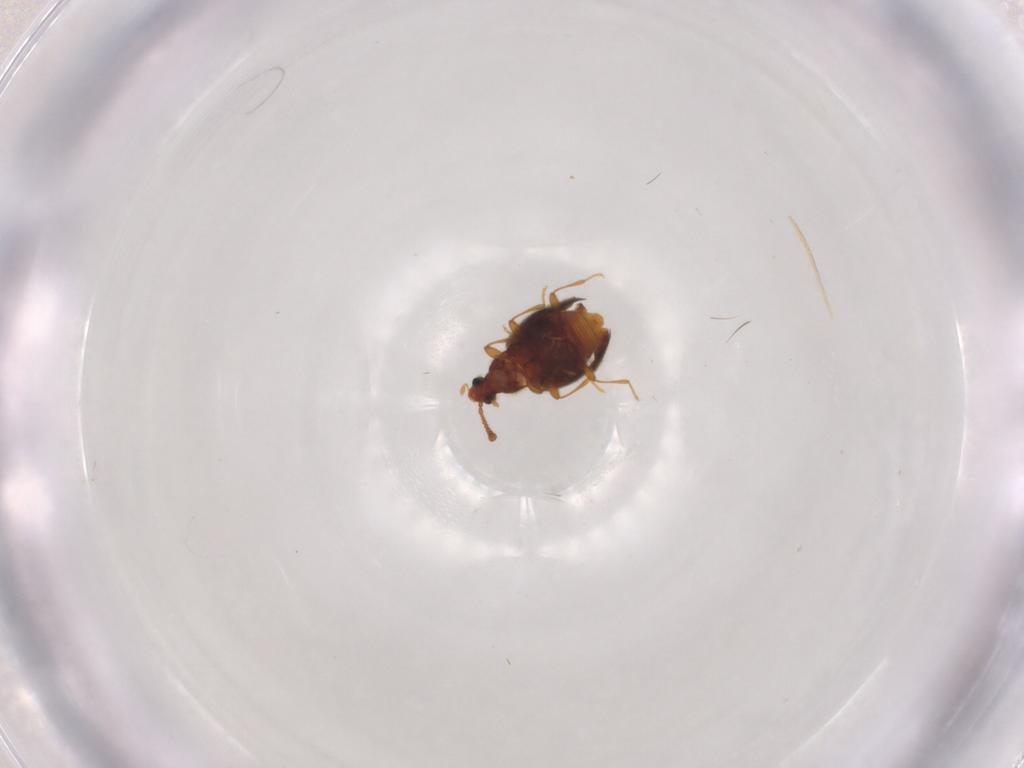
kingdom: Animalia
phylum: Arthropoda
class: Insecta
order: Coleoptera
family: Staphylinidae
